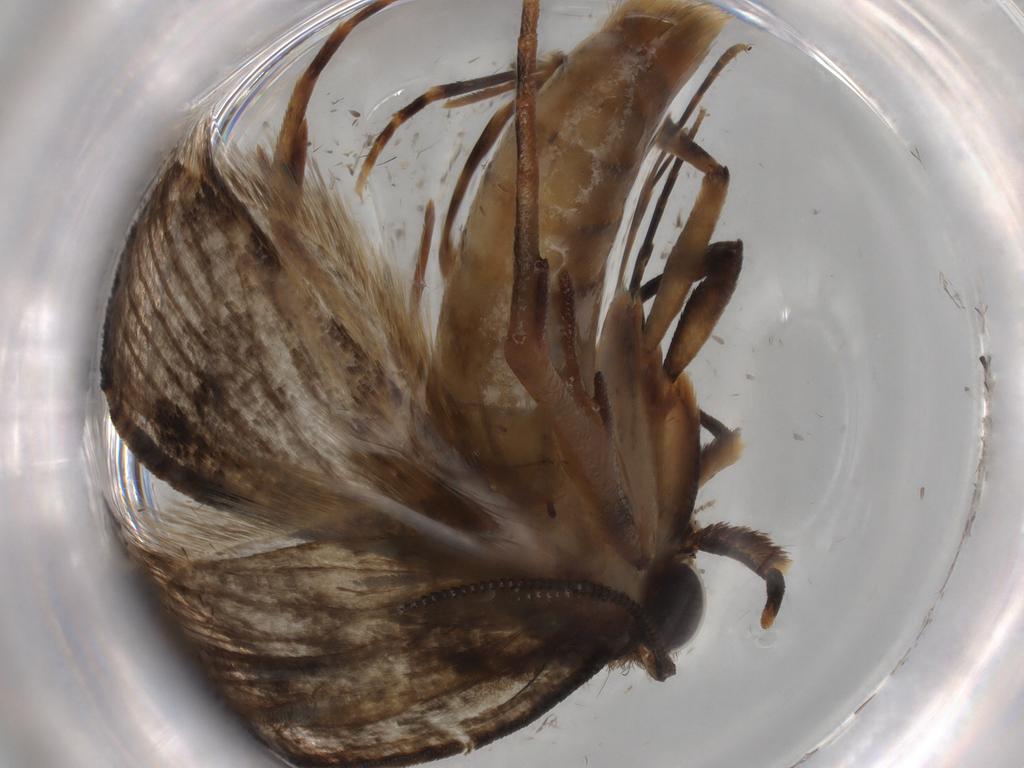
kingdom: Animalia
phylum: Arthropoda
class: Insecta
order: Lepidoptera
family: Tineidae
